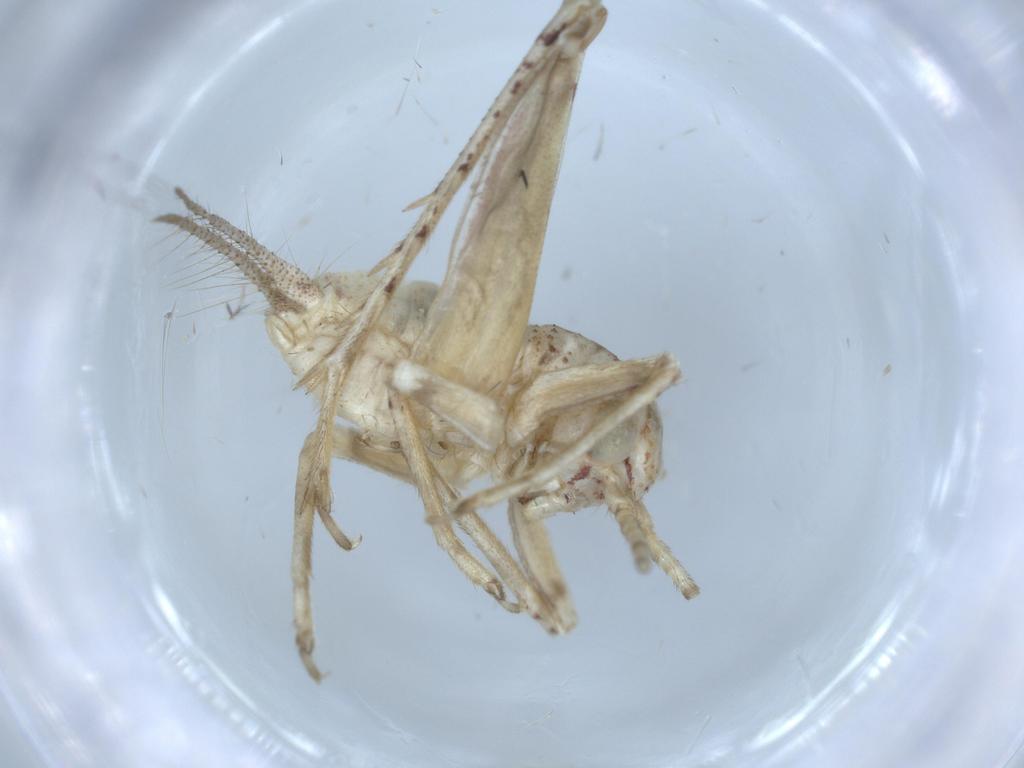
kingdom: Animalia
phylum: Arthropoda
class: Insecta
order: Orthoptera
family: Trigonidiidae
